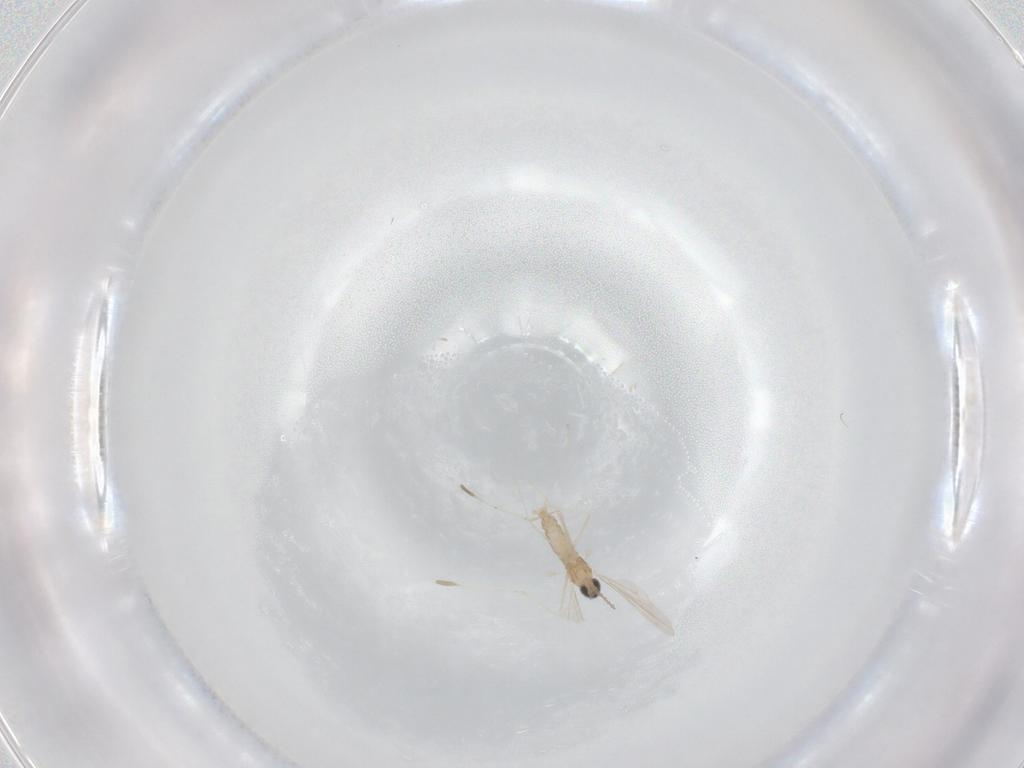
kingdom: Animalia
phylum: Arthropoda
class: Insecta
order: Diptera
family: Cecidomyiidae
